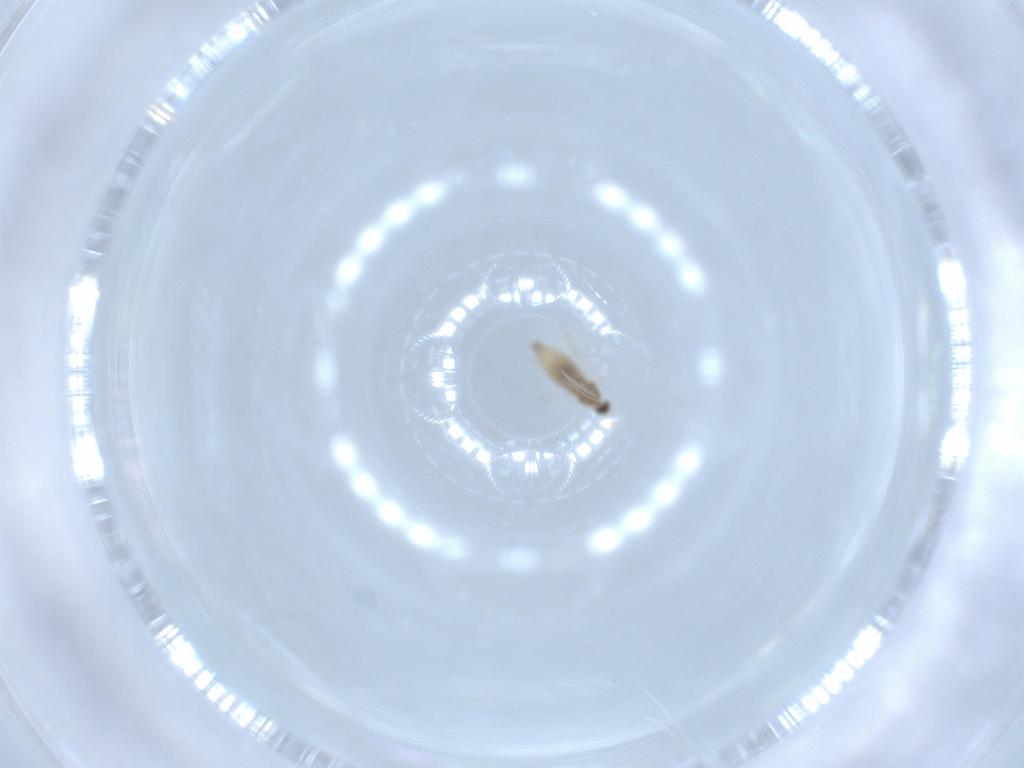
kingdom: Animalia
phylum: Arthropoda
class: Insecta
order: Diptera
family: Cecidomyiidae
